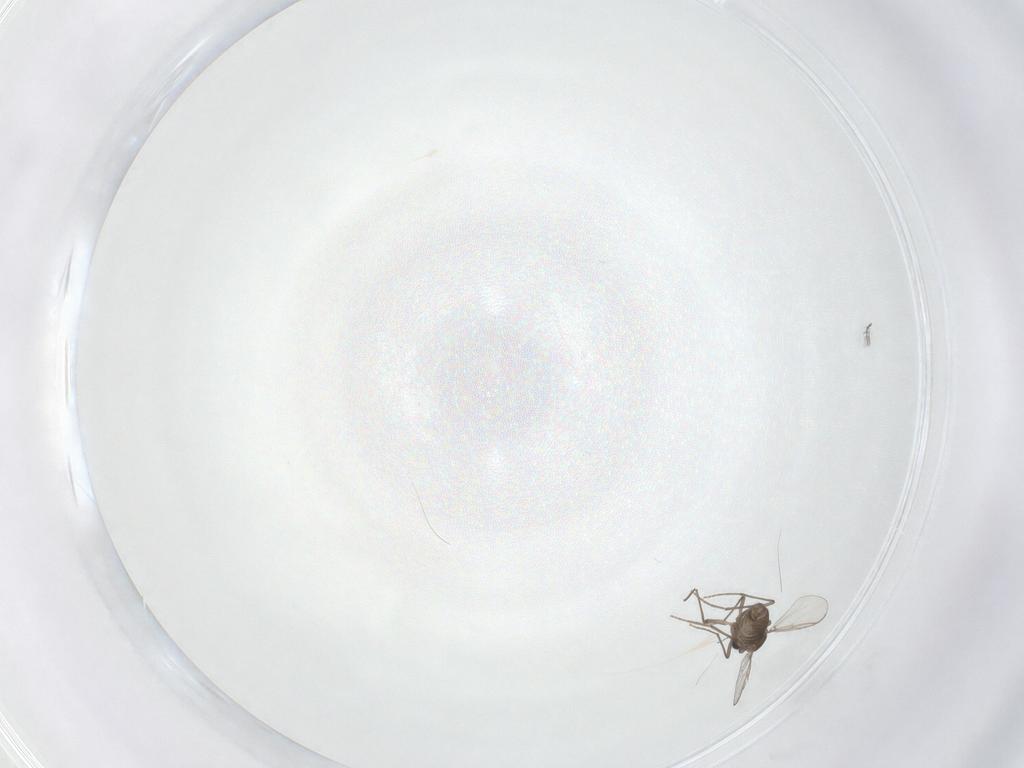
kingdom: Animalia
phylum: Arthropoda
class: Insecta
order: Diptera
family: Chironomidae
